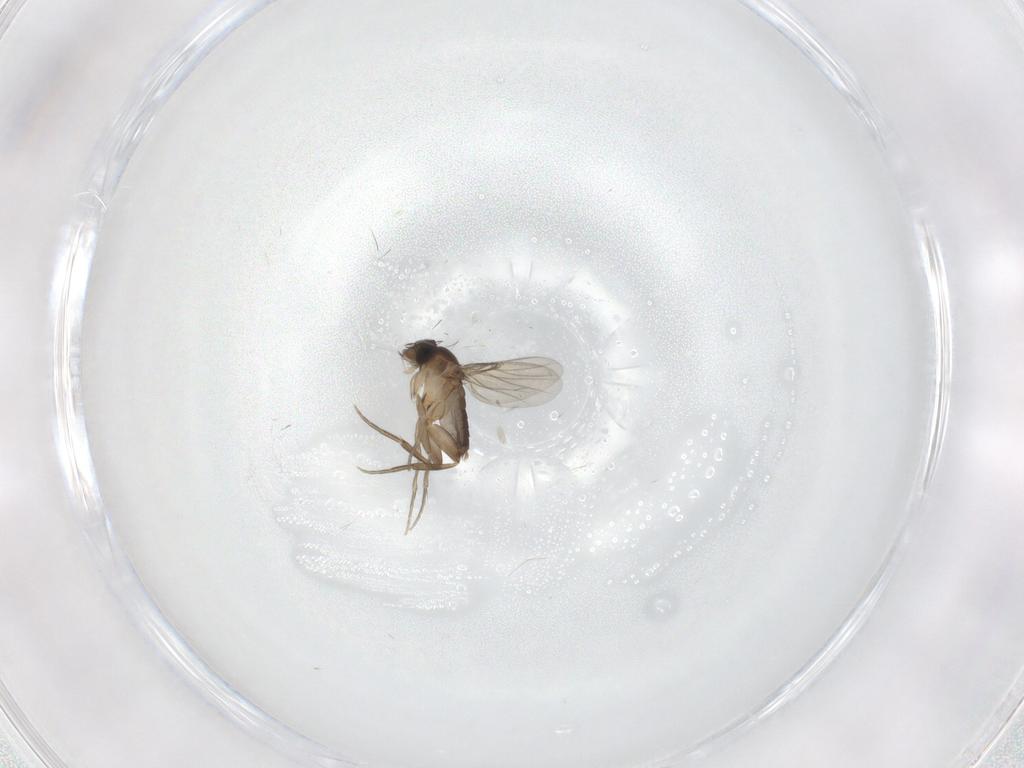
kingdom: Animalia
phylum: Arthropoda
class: Insecta
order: Diptera
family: Phoridae
